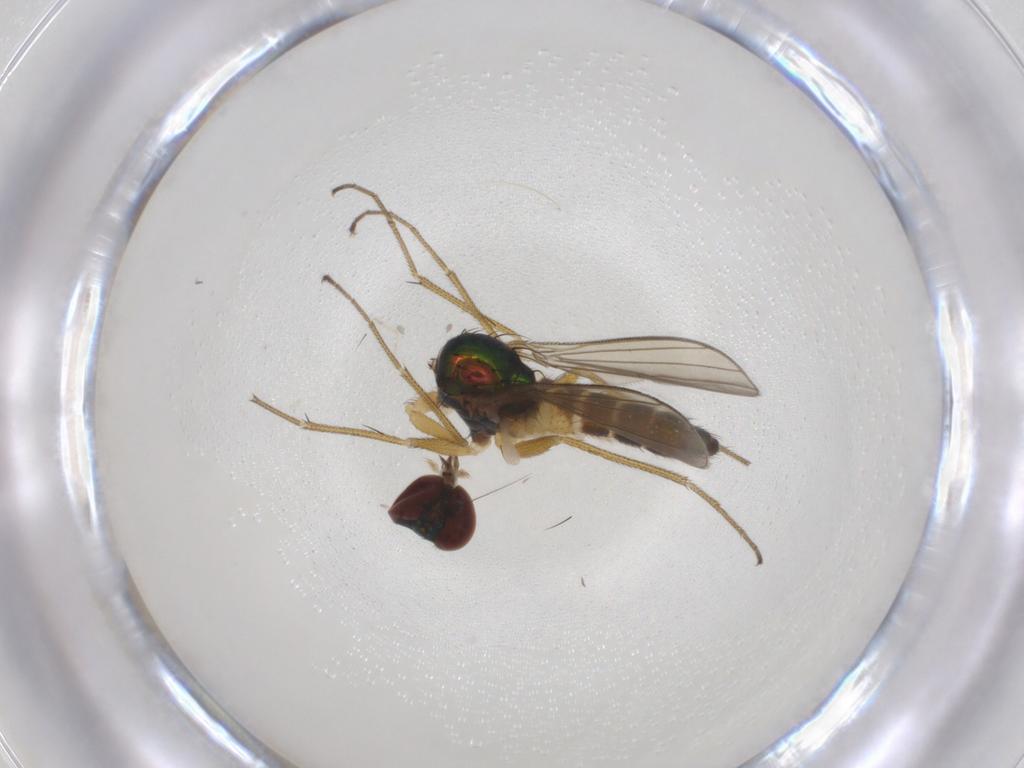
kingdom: Animalia
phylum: Arthropoda
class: Insecta
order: Diptera
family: Dolichopodidae
